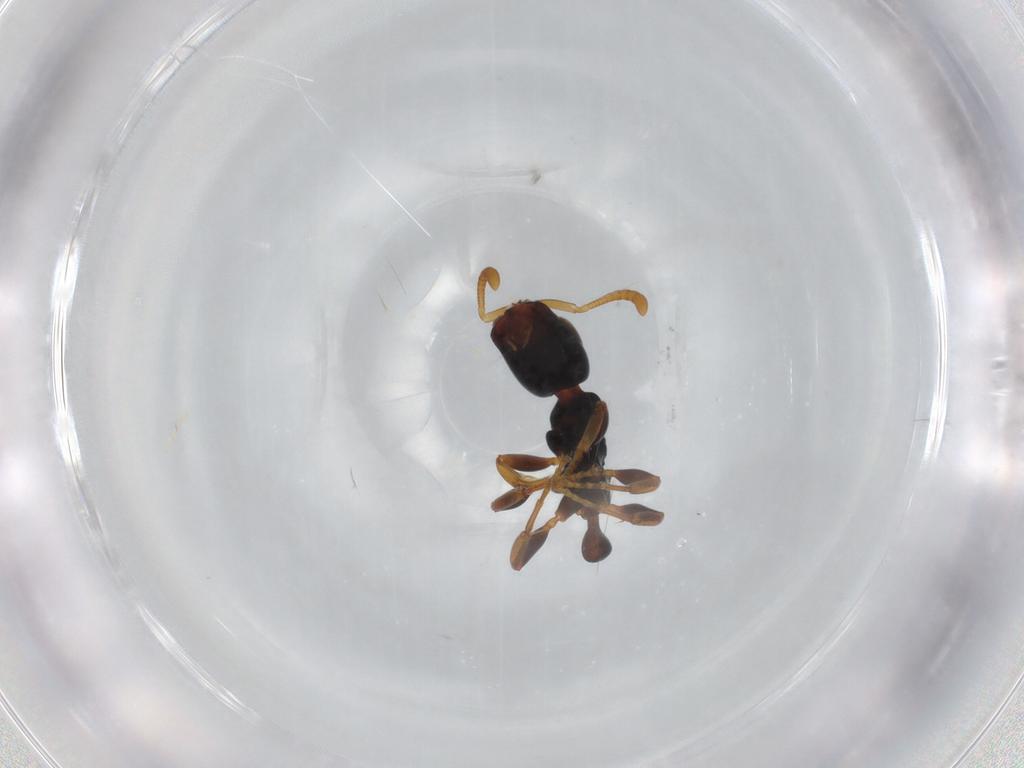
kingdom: Animalia
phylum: Arthropoda
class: Insecta
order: Hymenoptera
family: Formicidae
